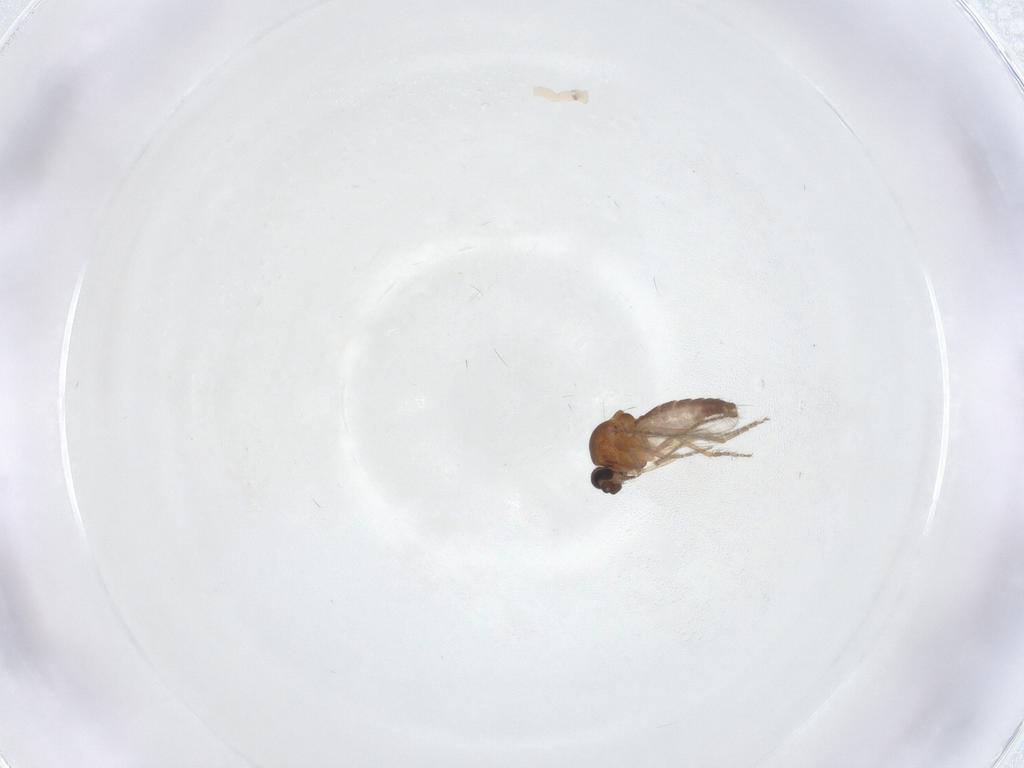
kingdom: Animalia
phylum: Arthropoda
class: Insecta
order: Diptera
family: Ceratopogonidae
